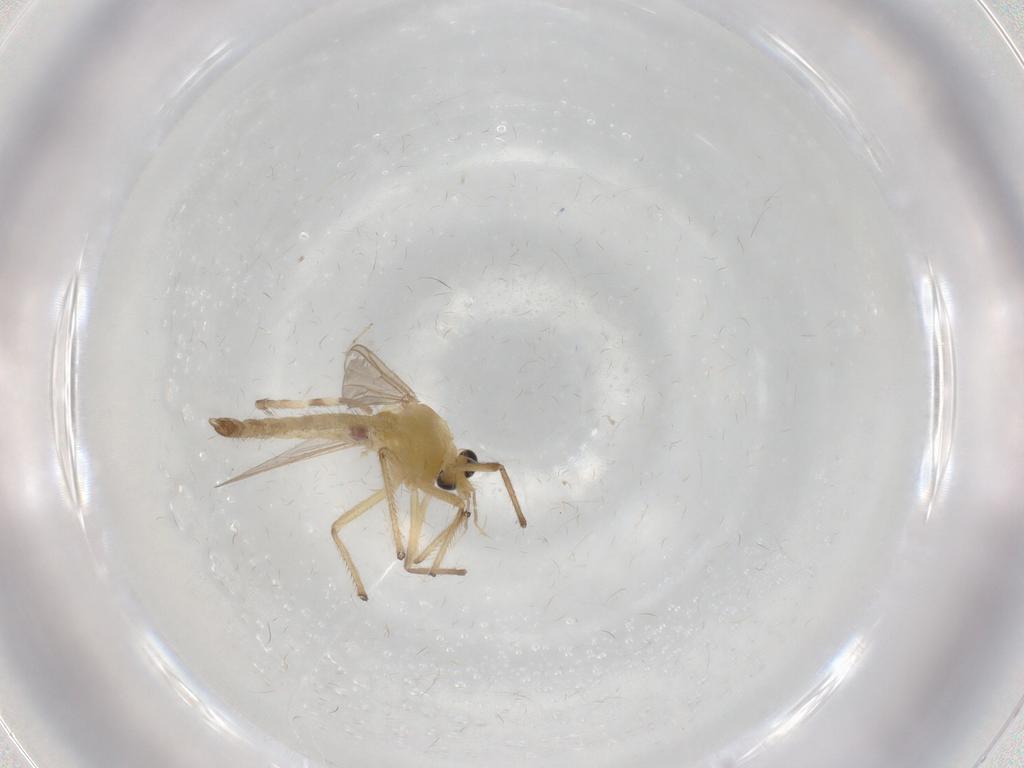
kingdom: Animalia
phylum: Arthropoda
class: Insecta
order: Diptera
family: Chironomidae
